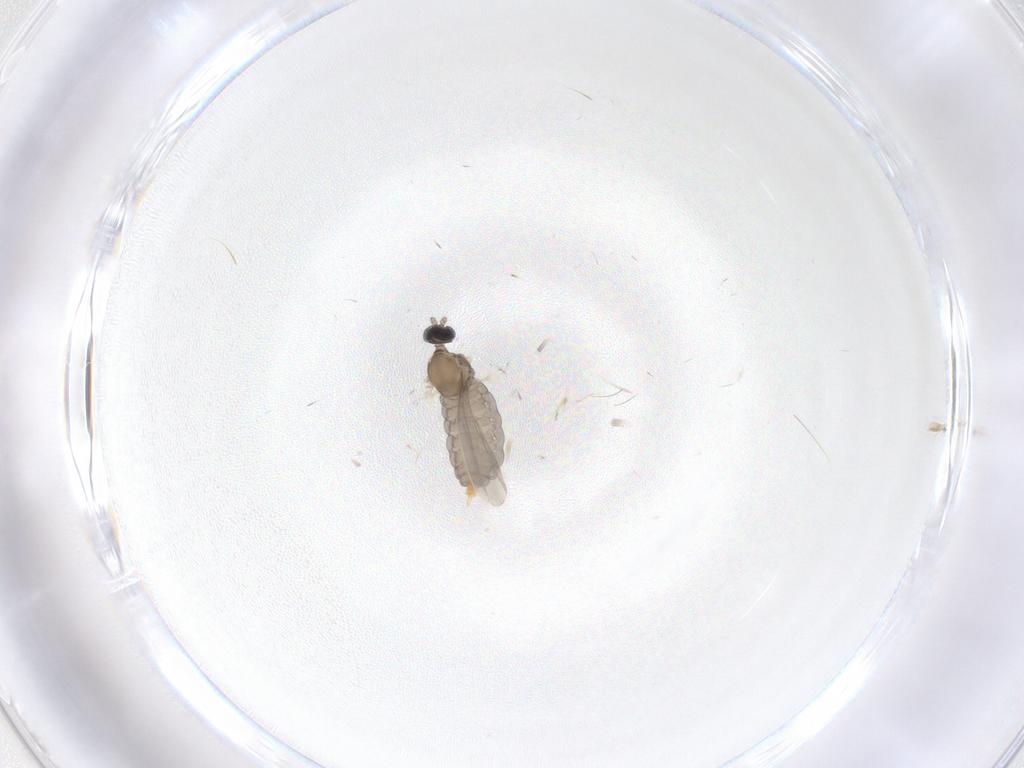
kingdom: Animalia
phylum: Arthropoda
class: Insecta
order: Diptera
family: Cecidomyiidae
